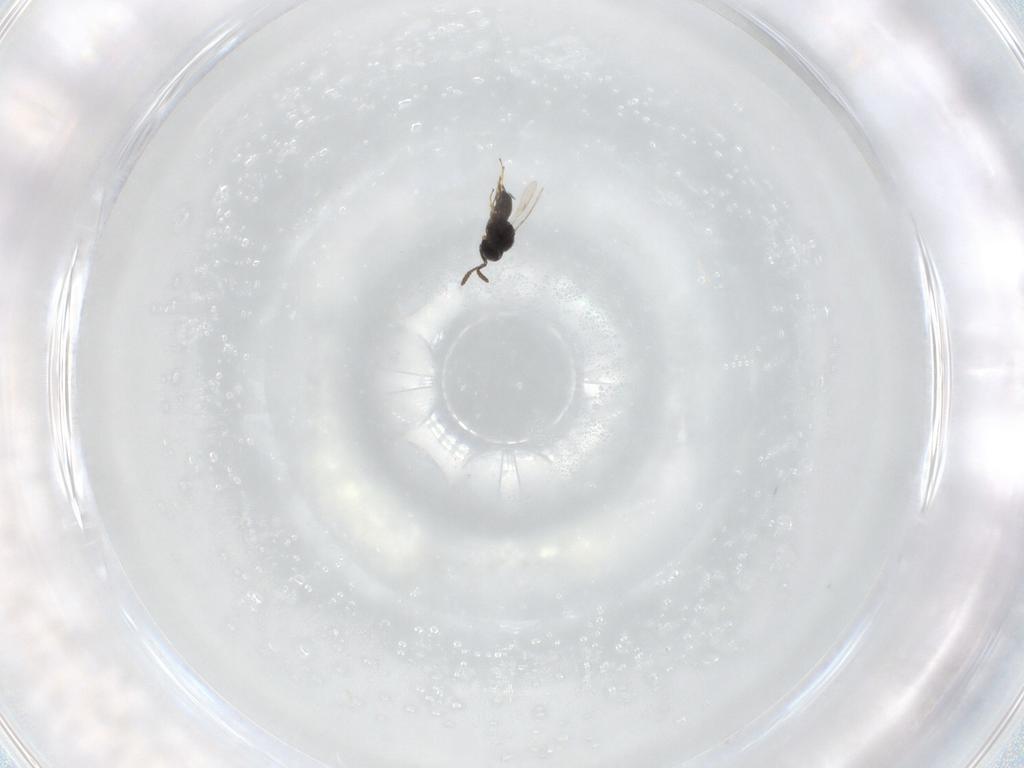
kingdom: Animalia
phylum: Arthropoda
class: Insecta
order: Hymenoptera
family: Scelionidae
